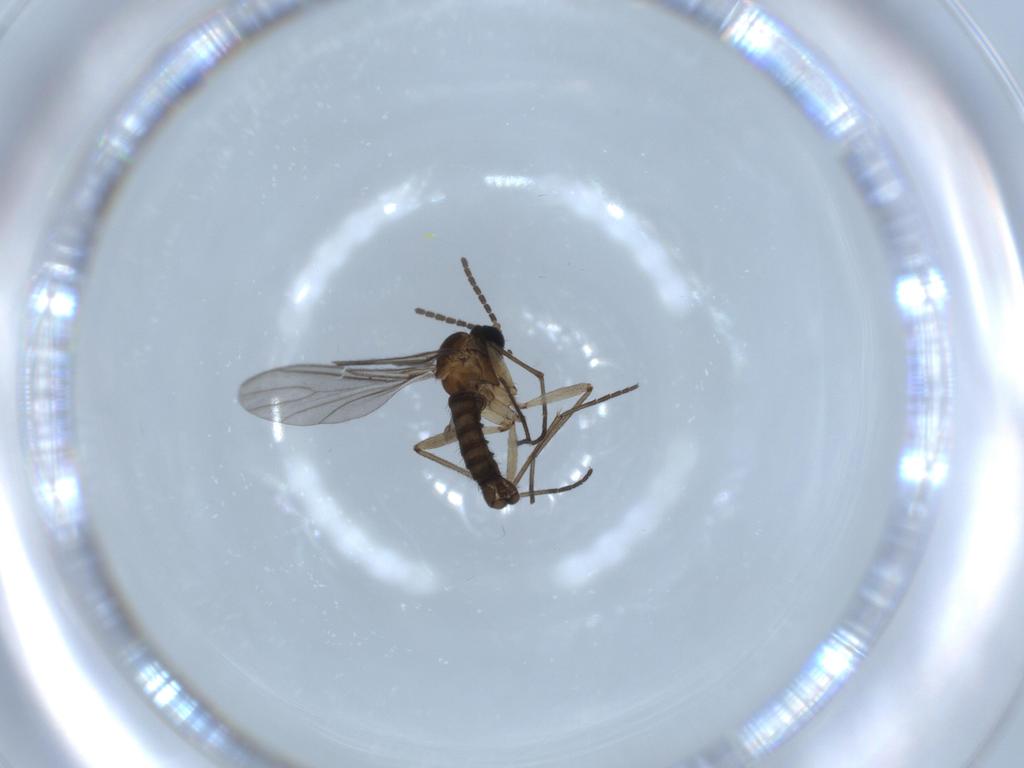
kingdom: Animalia
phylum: Arthropoda
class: Insecta
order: Diptera
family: Sciaridae
